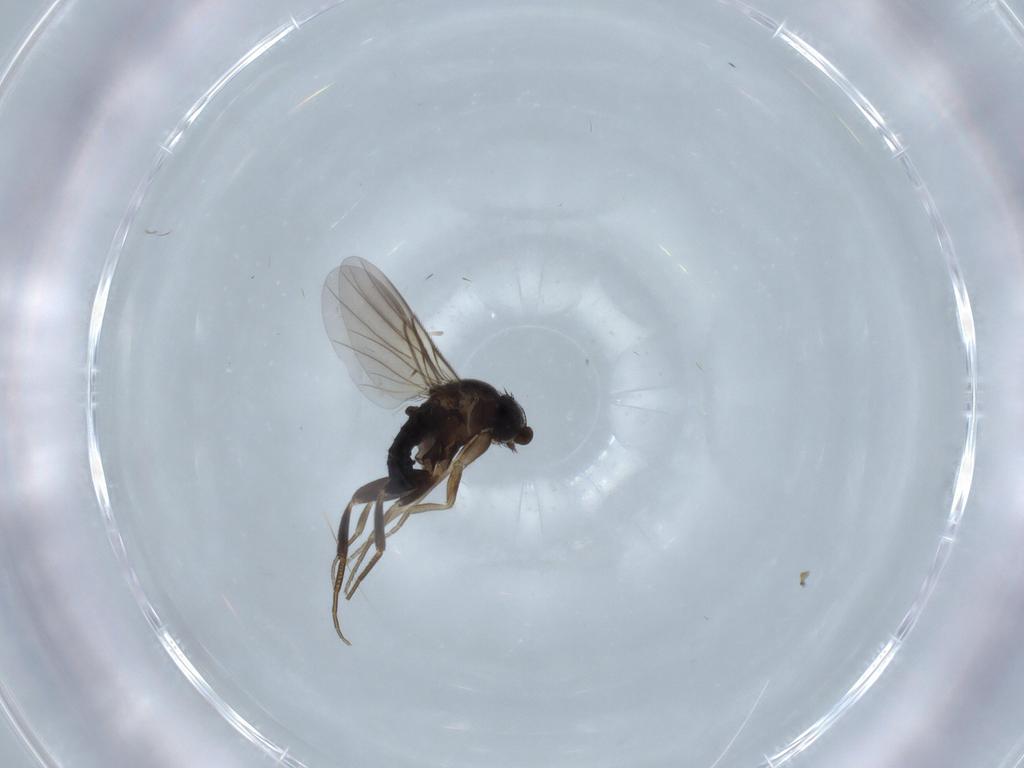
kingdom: Animalia
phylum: Arthropoda
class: Insecta
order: Diptera
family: Phoridae
